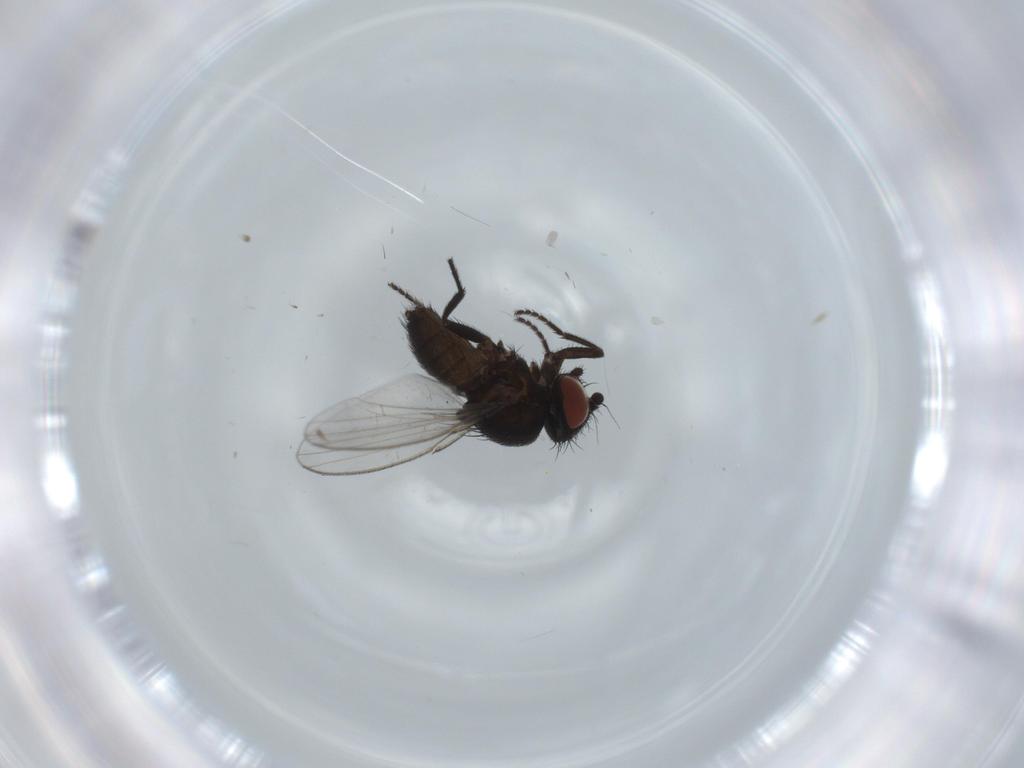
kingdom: Animalia
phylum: Arthropoda
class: Insecta
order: Diptera
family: Milichiidae
